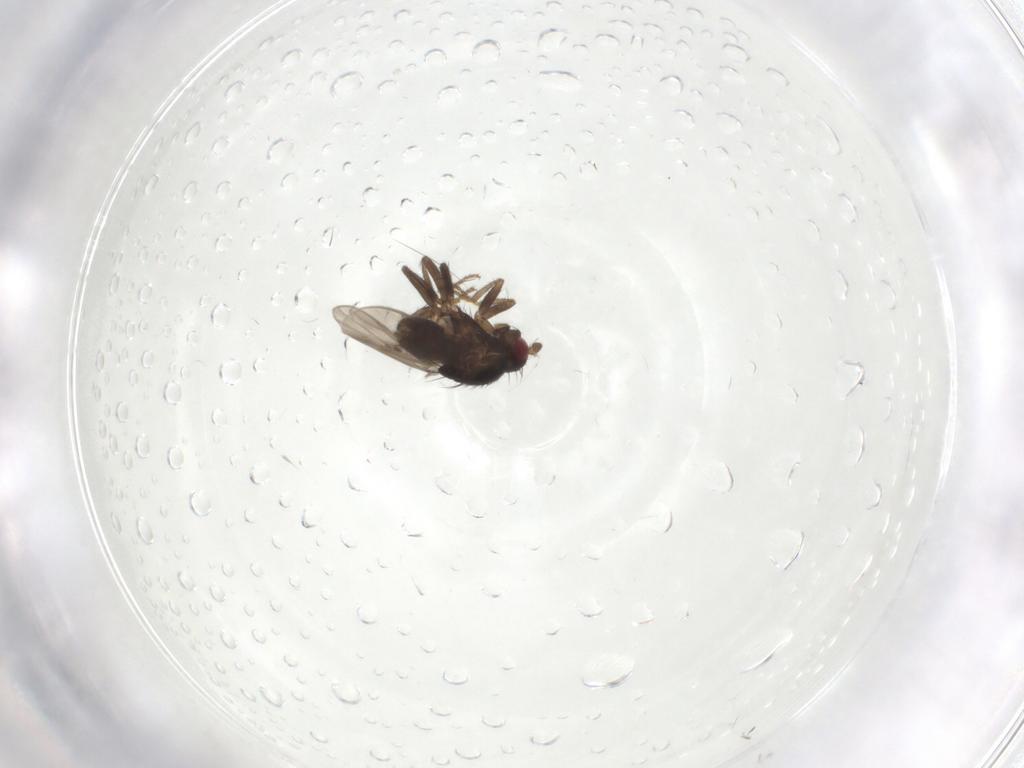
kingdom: Animalia
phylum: Arthropoda
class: Insecta
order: Diptera
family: Sphaeroceridae
